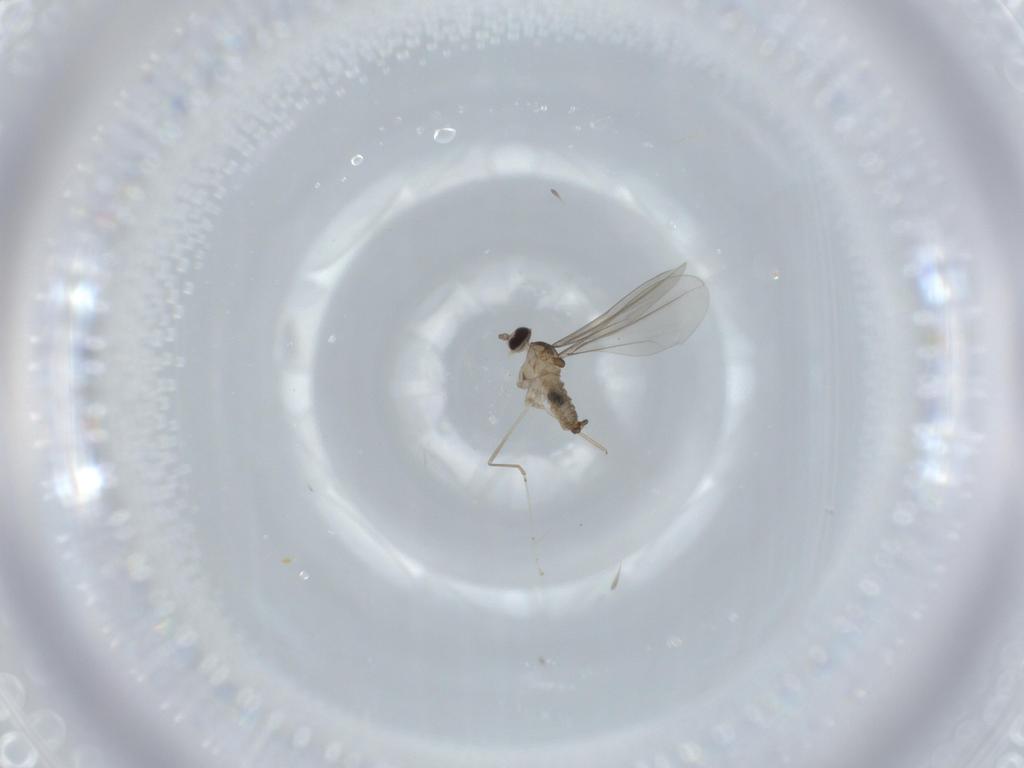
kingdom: Animalia
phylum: Arthropoda
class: Insecta
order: Diptera
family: Cecidomyiidae
